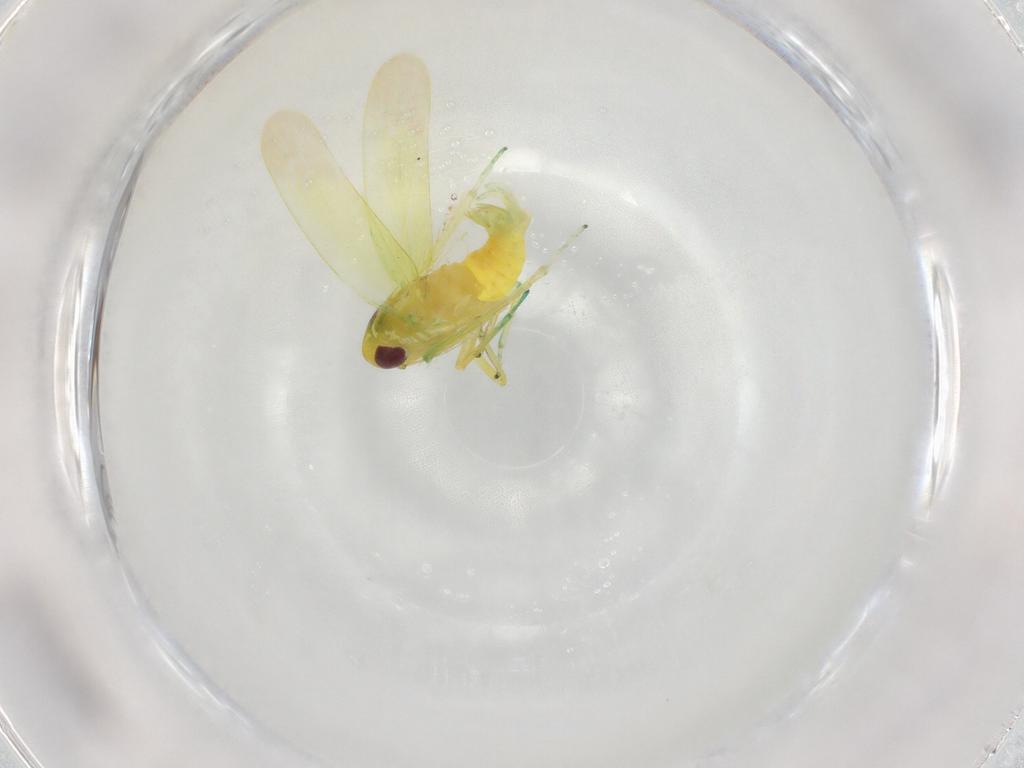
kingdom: Animalia
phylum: Arthropoda
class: Insecta
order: Hemiptera
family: Cicadellidae
